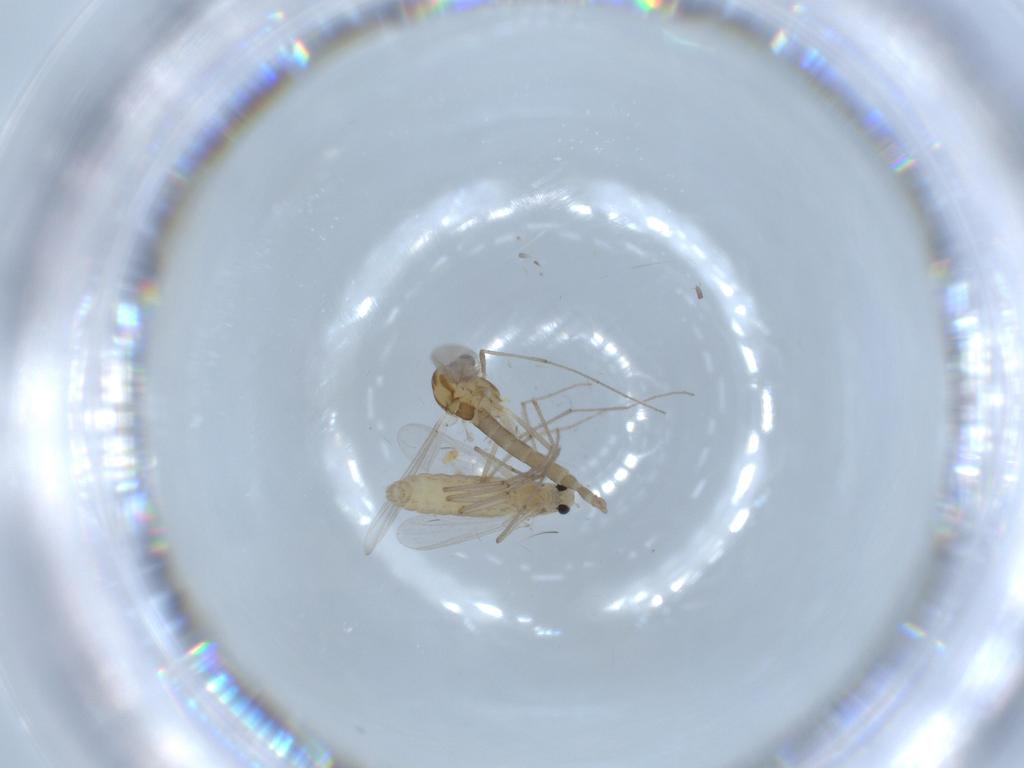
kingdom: Animalia
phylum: Arthropoda
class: Insecta
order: Diptera
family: Chironomidae
